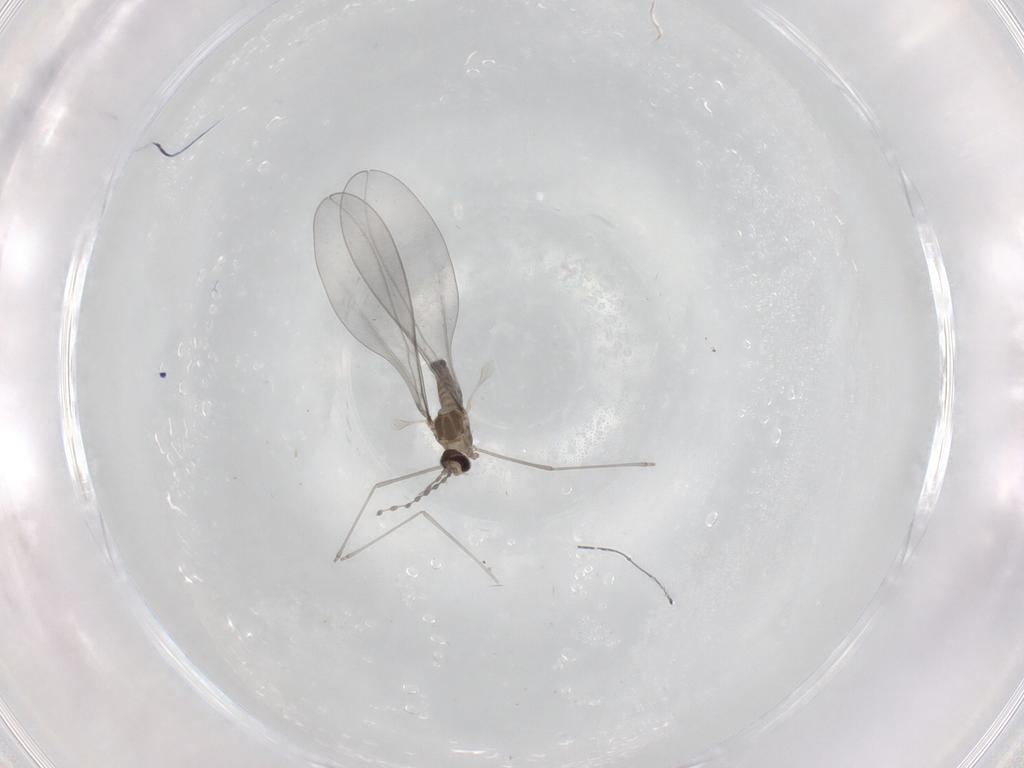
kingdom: Animalia
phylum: Arthropoda
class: Insecta
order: Diptera
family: Cecidomyiidae
